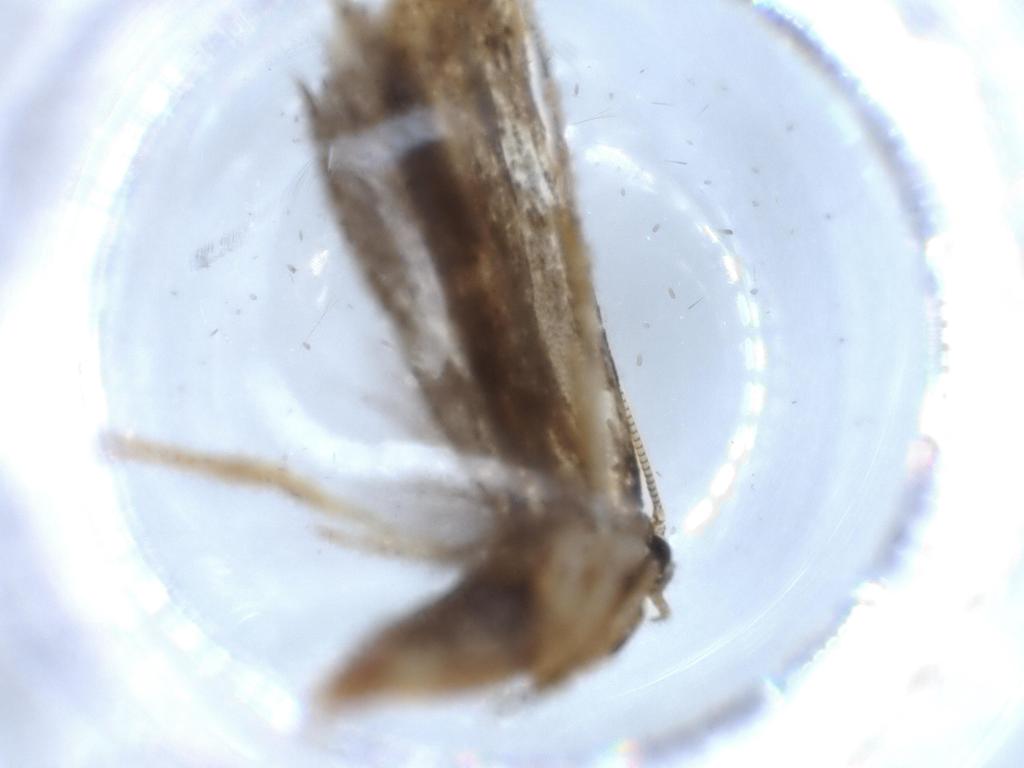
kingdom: Animalia
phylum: Arthropoda
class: Insecta
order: Lepidoptera
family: Tineidae
